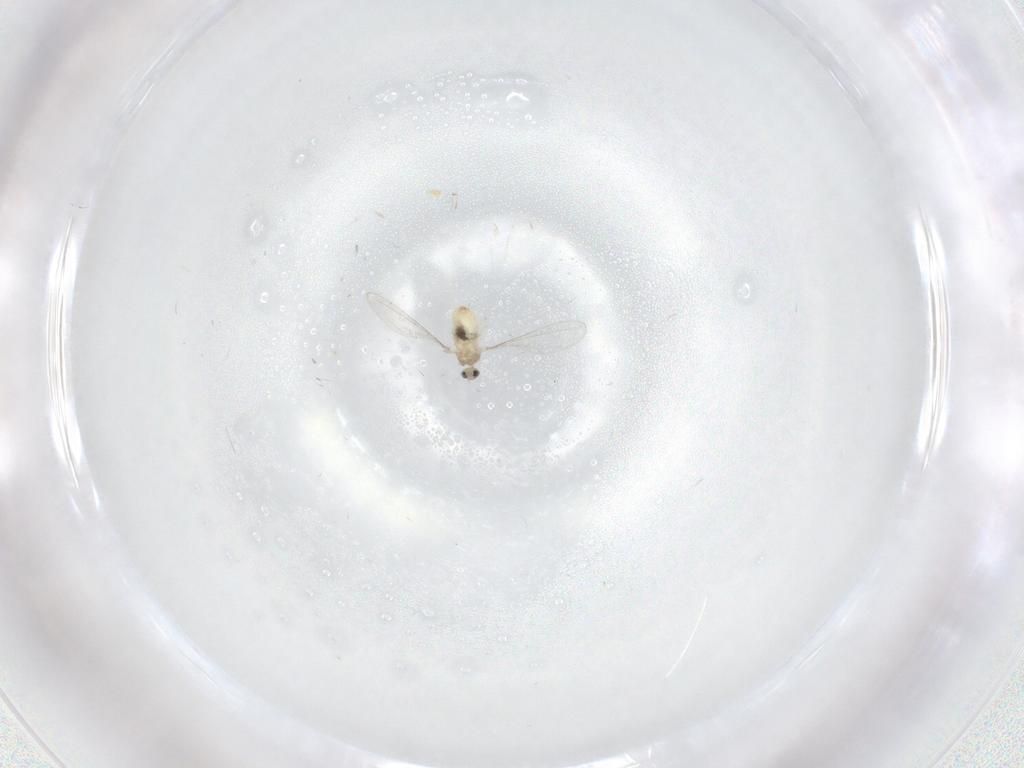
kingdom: Animalia
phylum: Arthropoda
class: Insecta
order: Diptera
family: Cecidomyiidae
